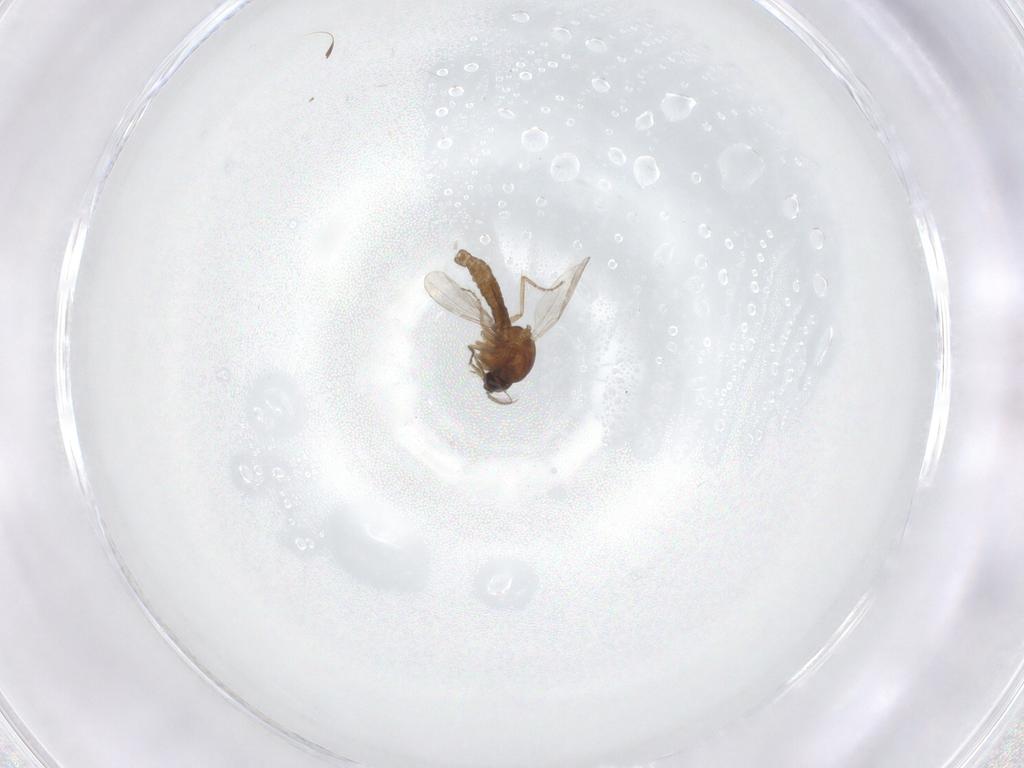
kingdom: Animalia
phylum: Arthropoda
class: Insecta
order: Diptera
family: Ceratopogonidae
